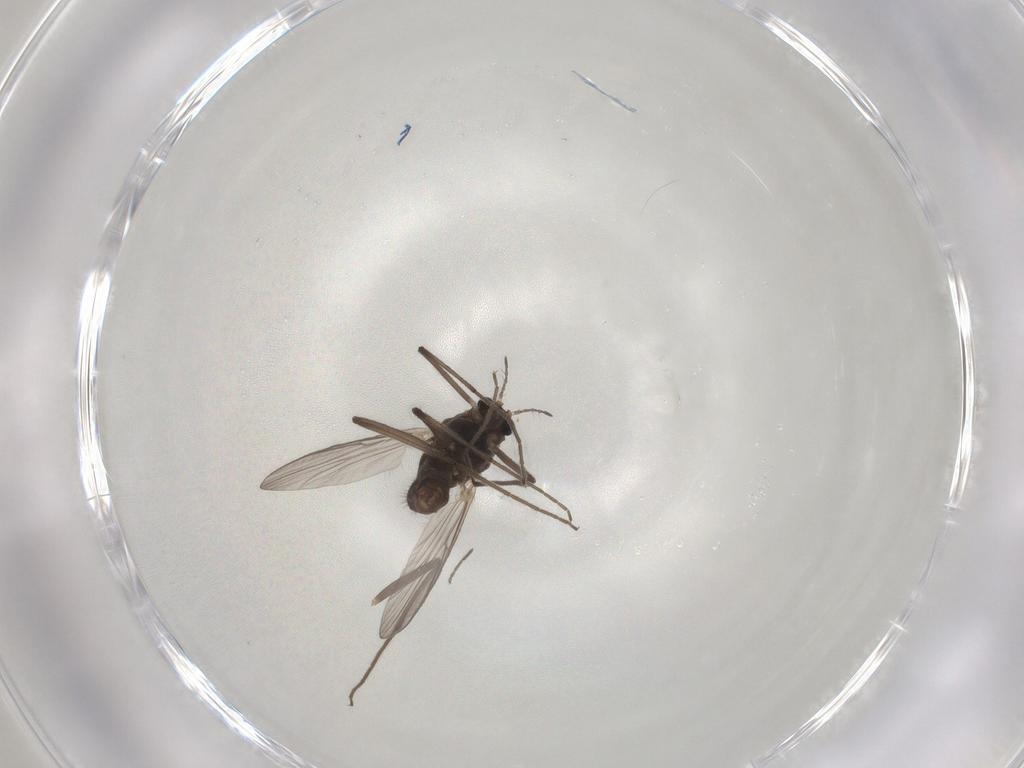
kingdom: Animalia
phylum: Arthropoda
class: Insecta
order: Diptera
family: Chironomidae
